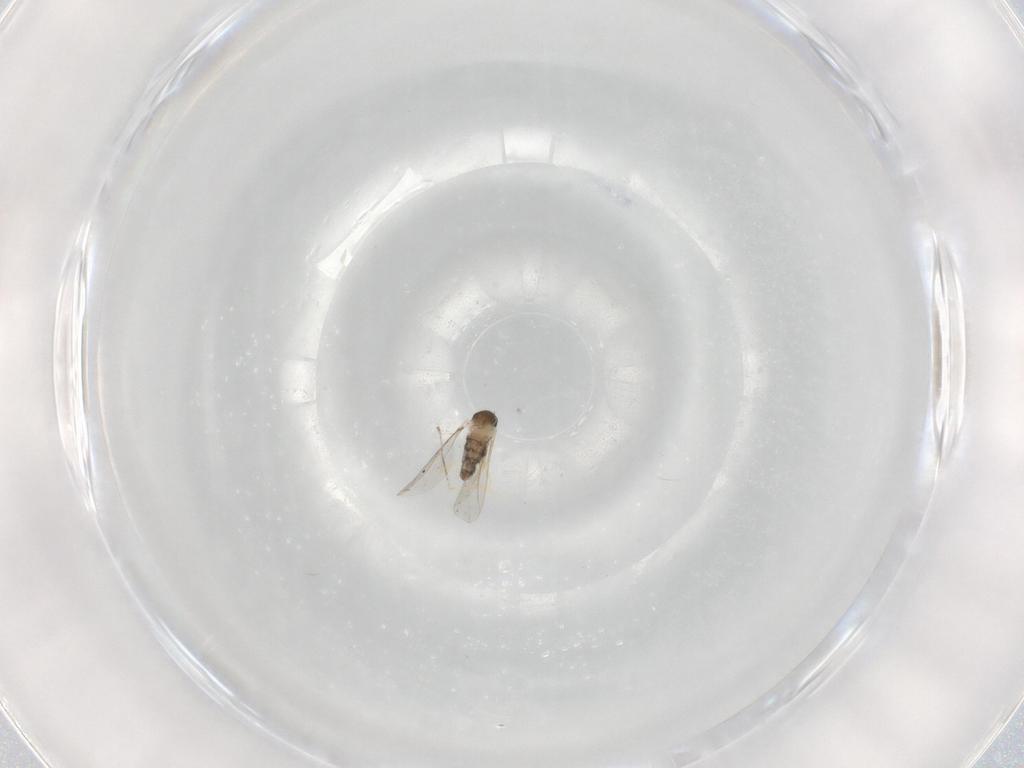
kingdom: Animalia
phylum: Arthropoda
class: Insecta
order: Diptera
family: Cecidomyiidae
